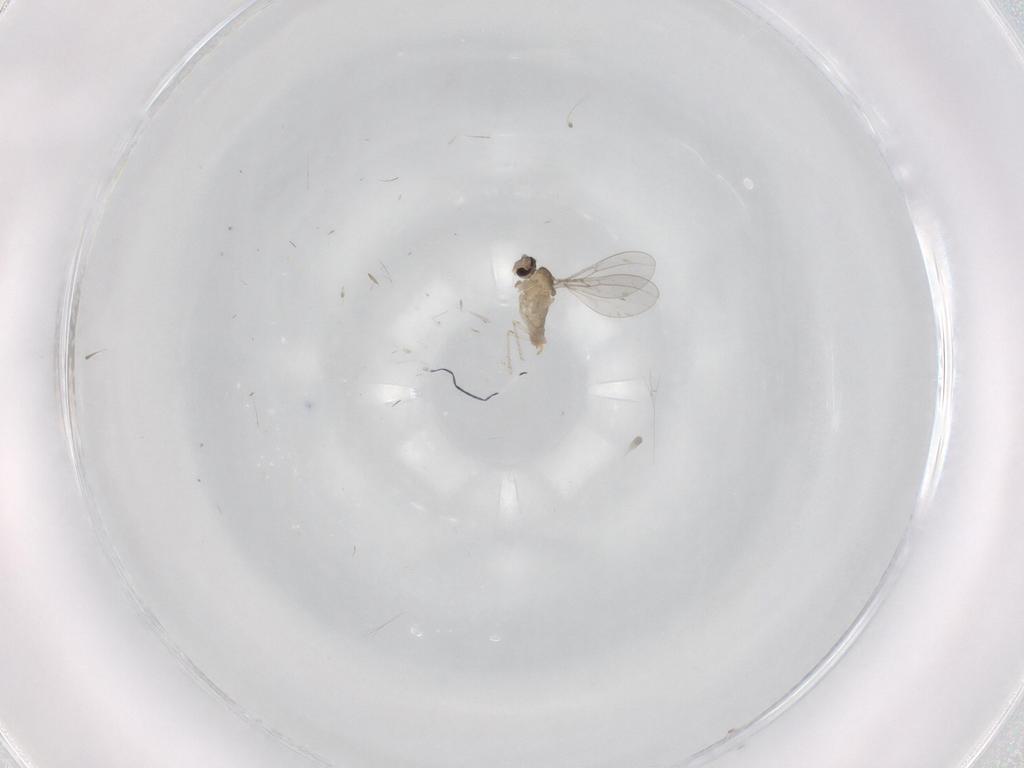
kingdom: Animalia
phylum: Arthropoda
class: Insecta
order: Diptera
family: Cecidomyiidae
